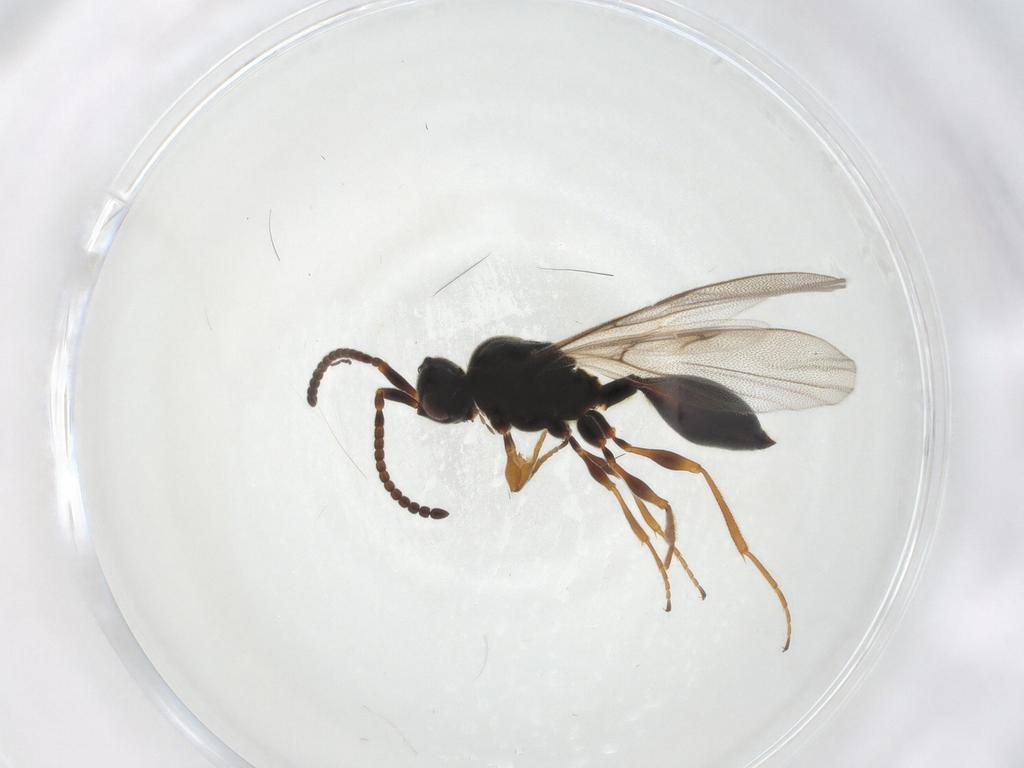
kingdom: Animalia
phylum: Arthropoda
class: Insecta
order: Hymenoptera
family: Diapriidae
